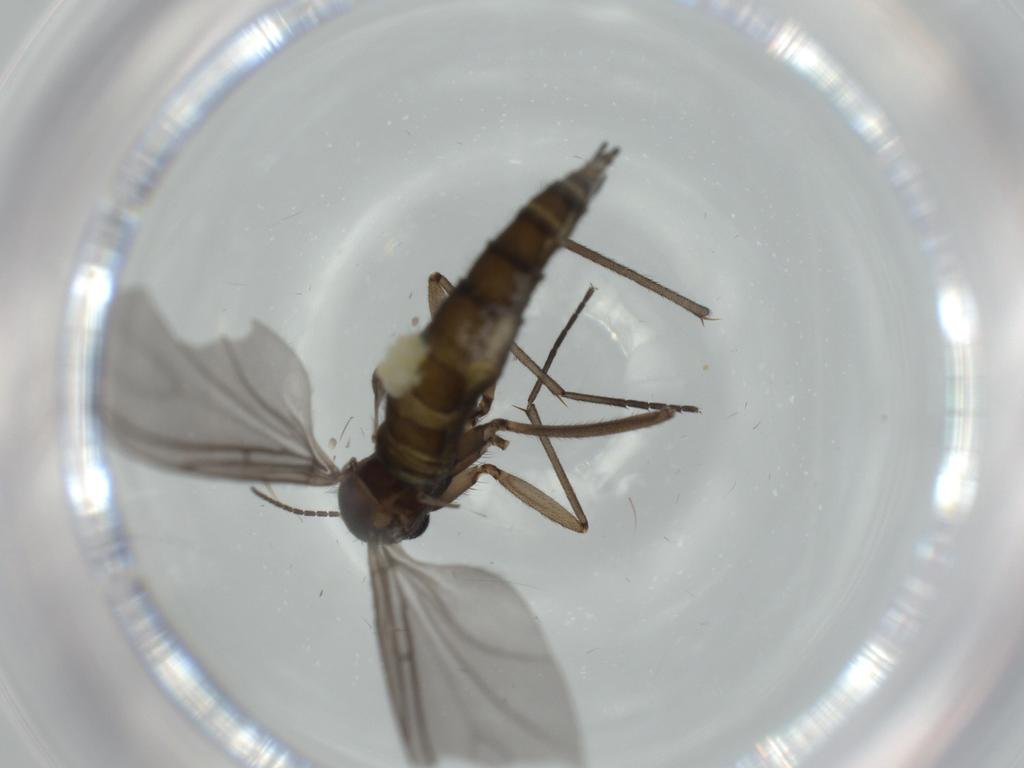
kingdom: Animalia
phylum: Arthropoda
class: Insecta
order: Diptera
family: Sciaridae
